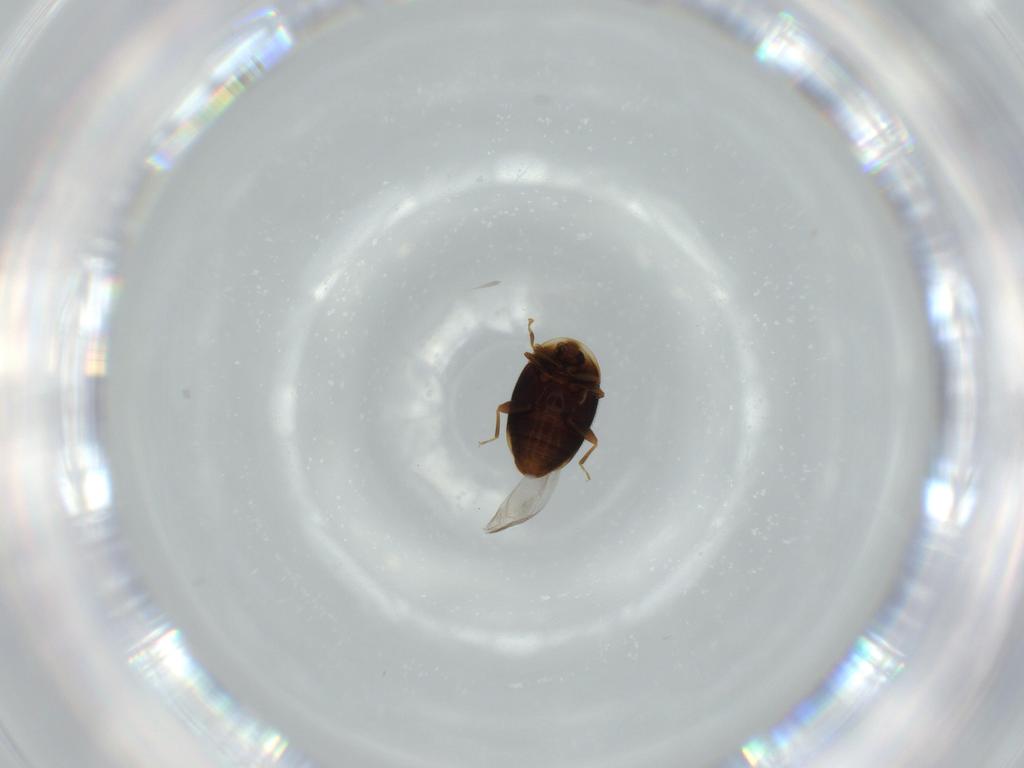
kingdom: Animalia
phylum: Arthropoda
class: Insecta
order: Coleoptera
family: Corylophidae
